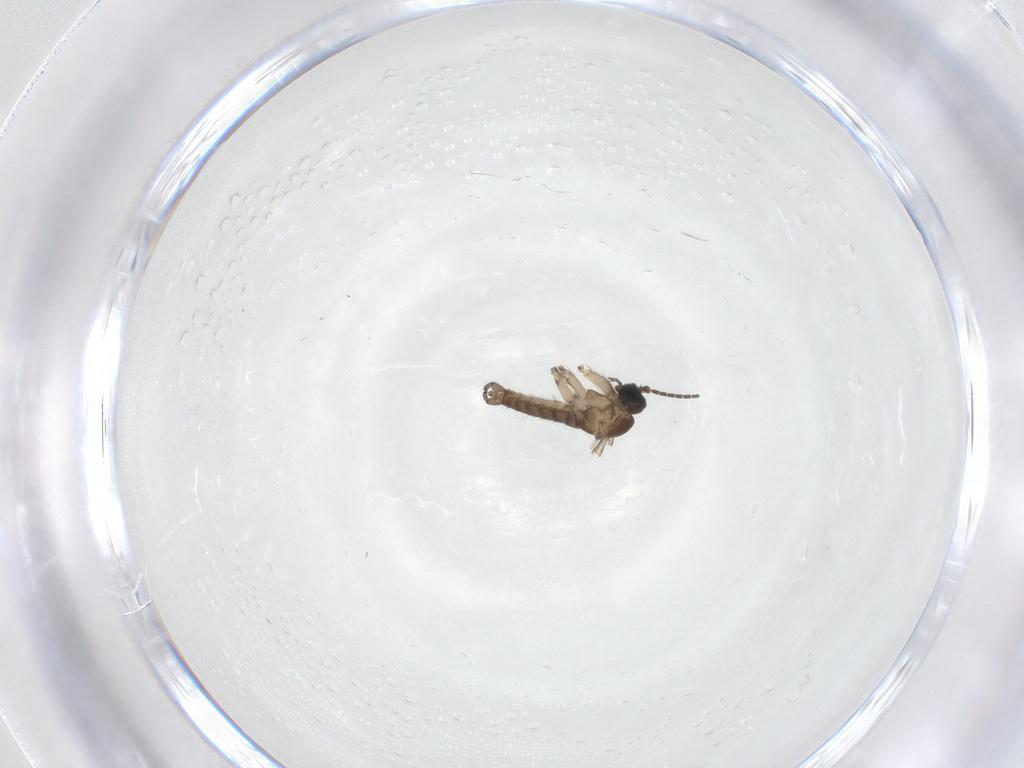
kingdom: Animalia
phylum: Arthropoda
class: Insecta
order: Diptera
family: Sciaridae
